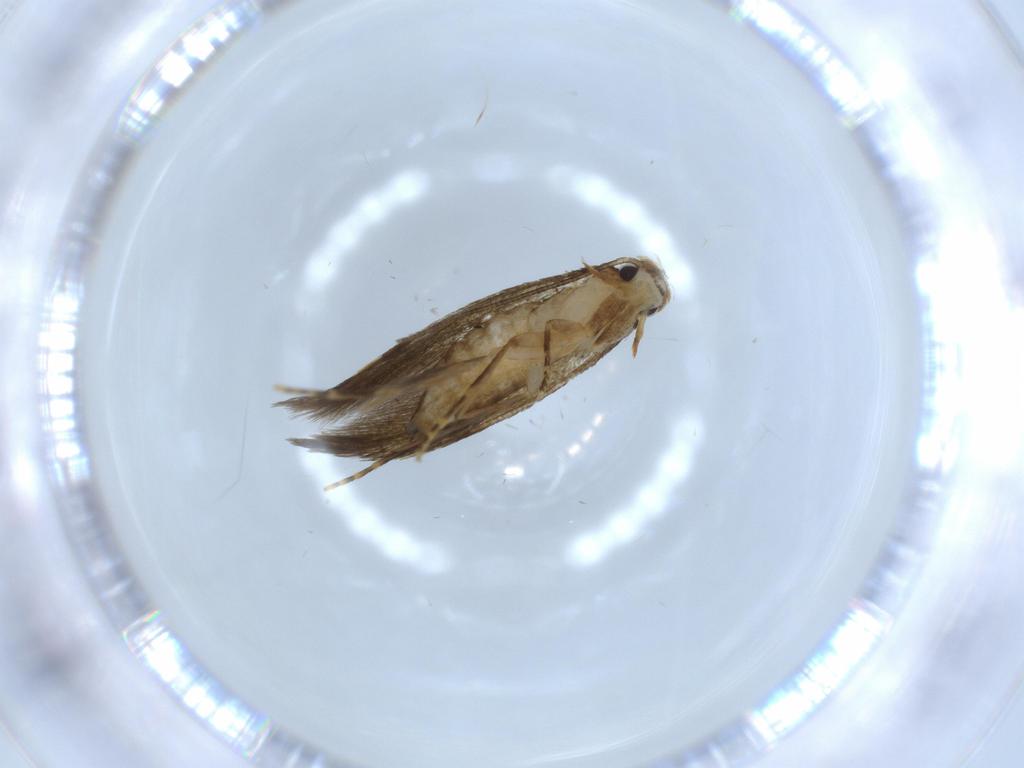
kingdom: Animalia
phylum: Arthropoda
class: Insecta
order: Lepidoptera
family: Tineidae
